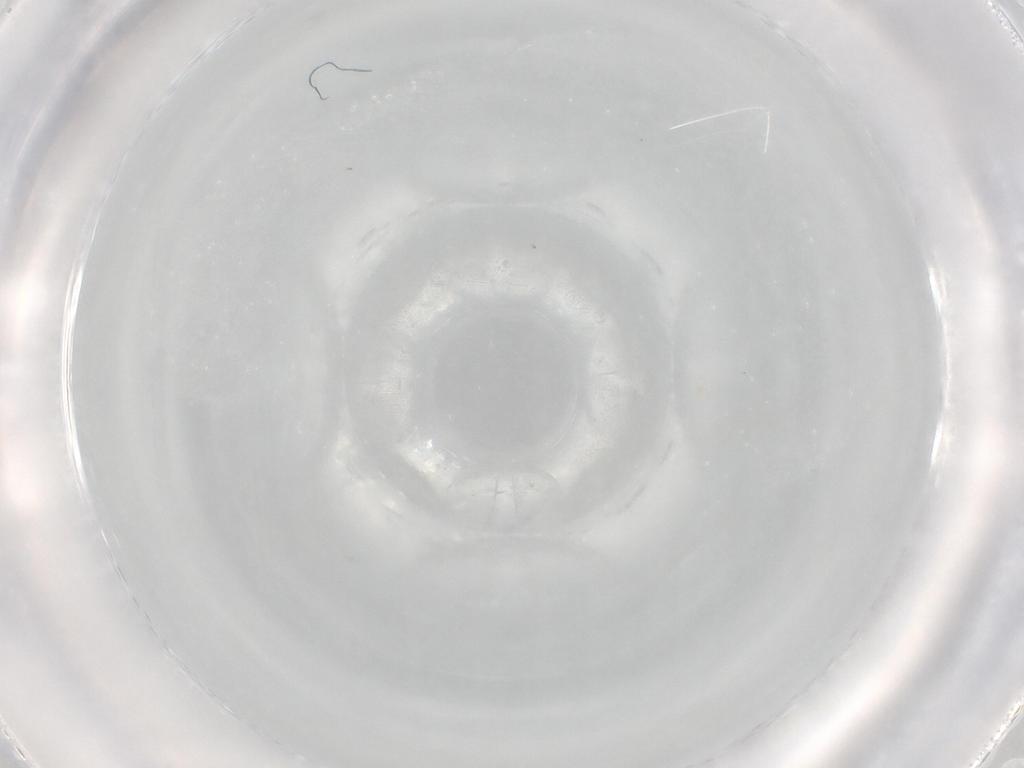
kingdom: Animalia
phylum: Arthropoda
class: Insecta
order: Diptera
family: Cecidomyiidae
